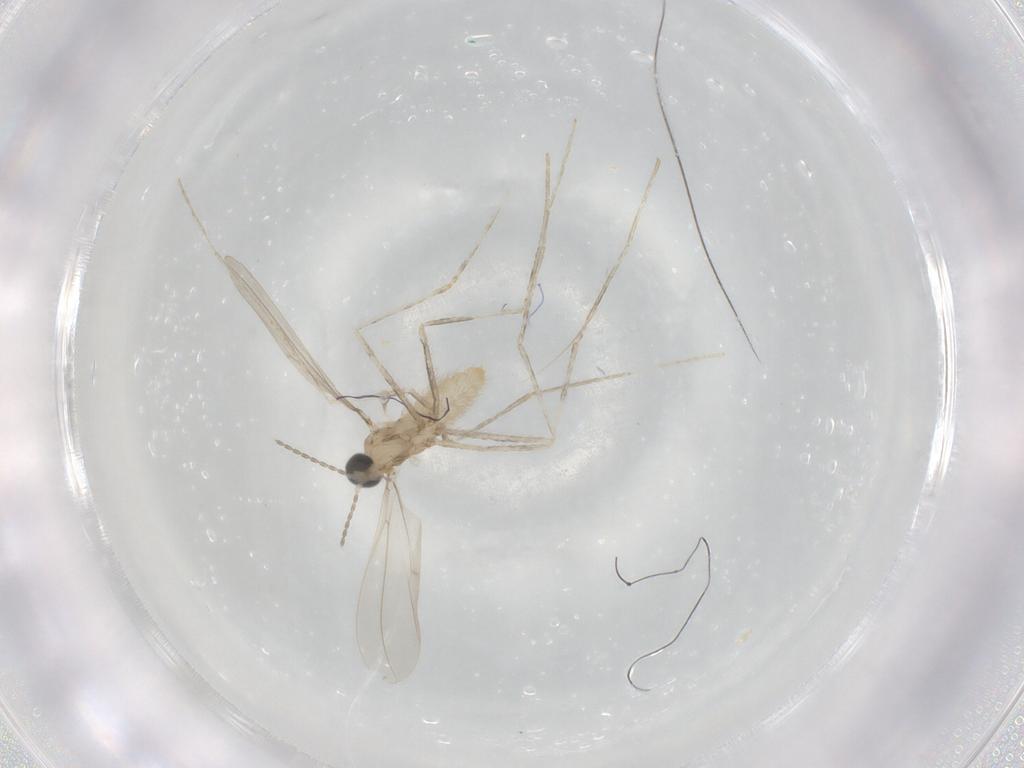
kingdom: Animalia
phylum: Arthropoda
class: Insecta
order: Diptera
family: Cecidomyiidae
